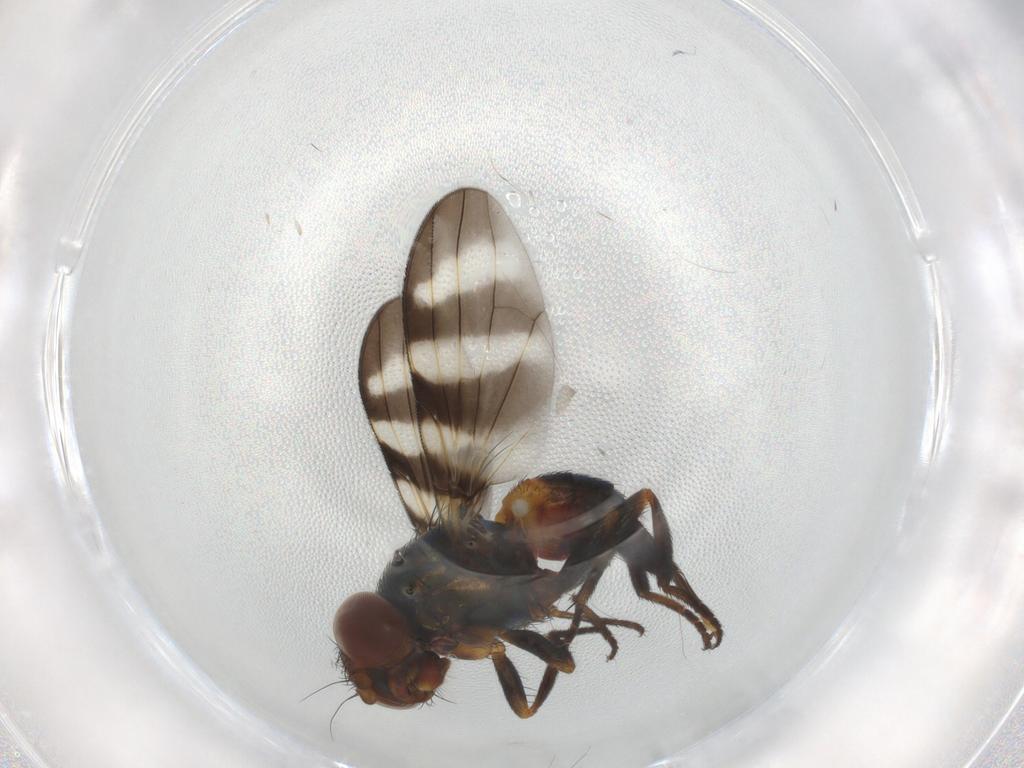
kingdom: Animalia
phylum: Arthropoda
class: Insecta
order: Diptera
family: Ceratopogonidae
